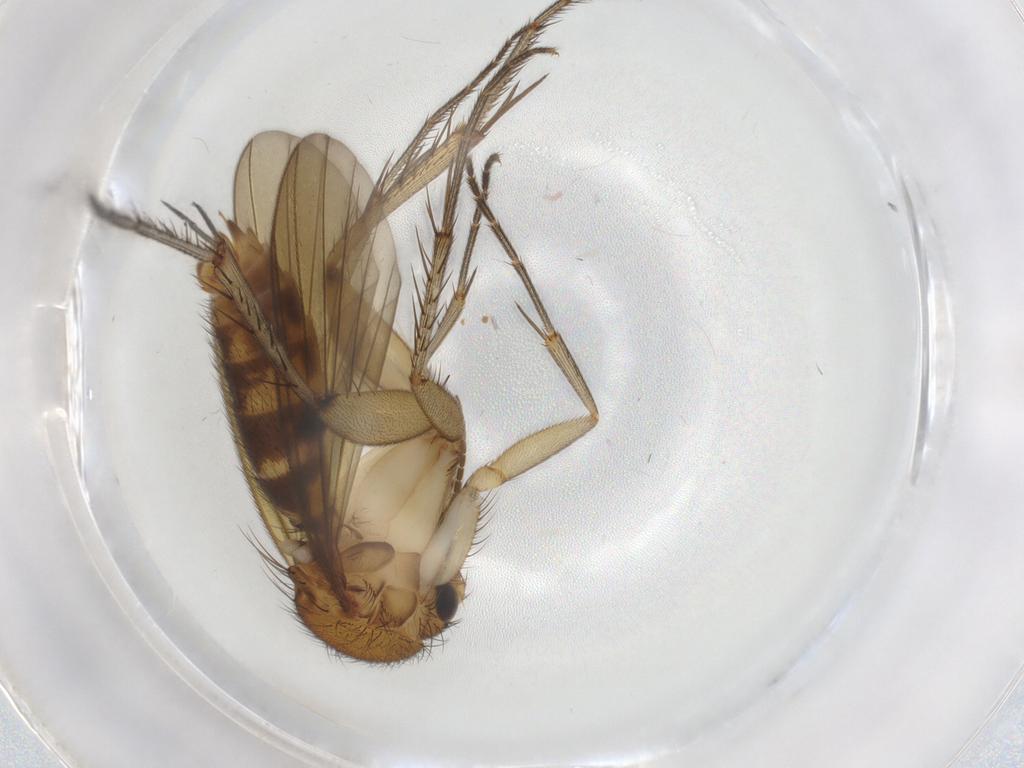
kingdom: Animalia
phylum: Arthropoda
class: Insecta
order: Diptera
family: Mycetophilidae
